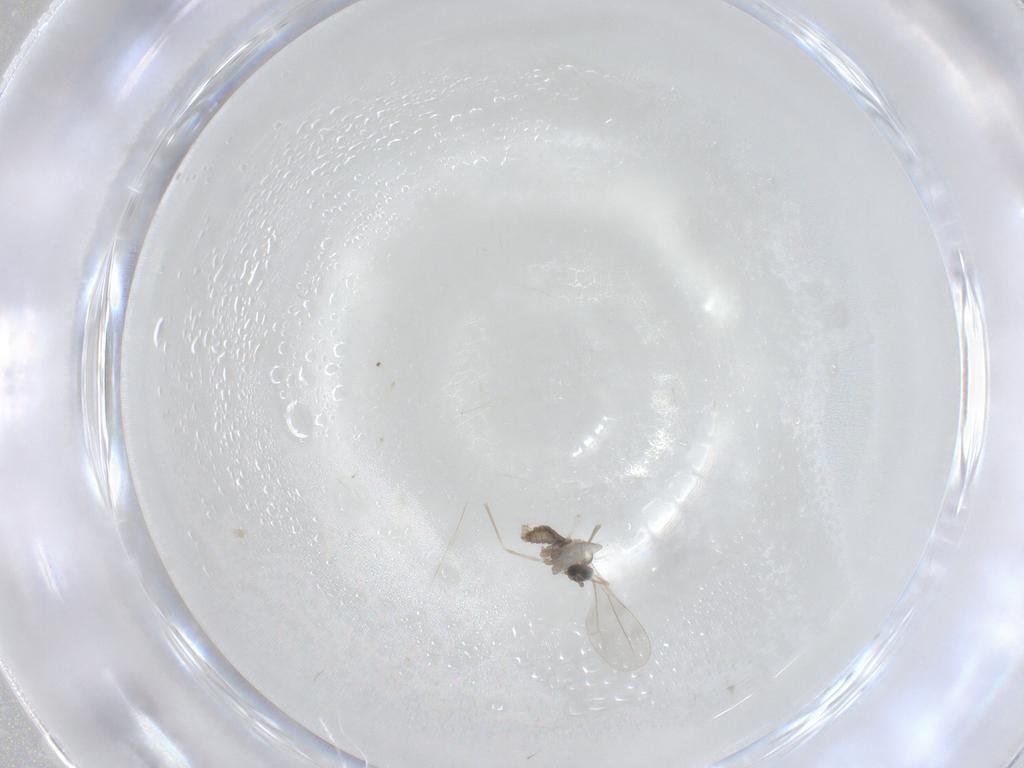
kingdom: Animalia
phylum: Arthropoda
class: Insecta
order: Diptera
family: Cecidomyiidae
